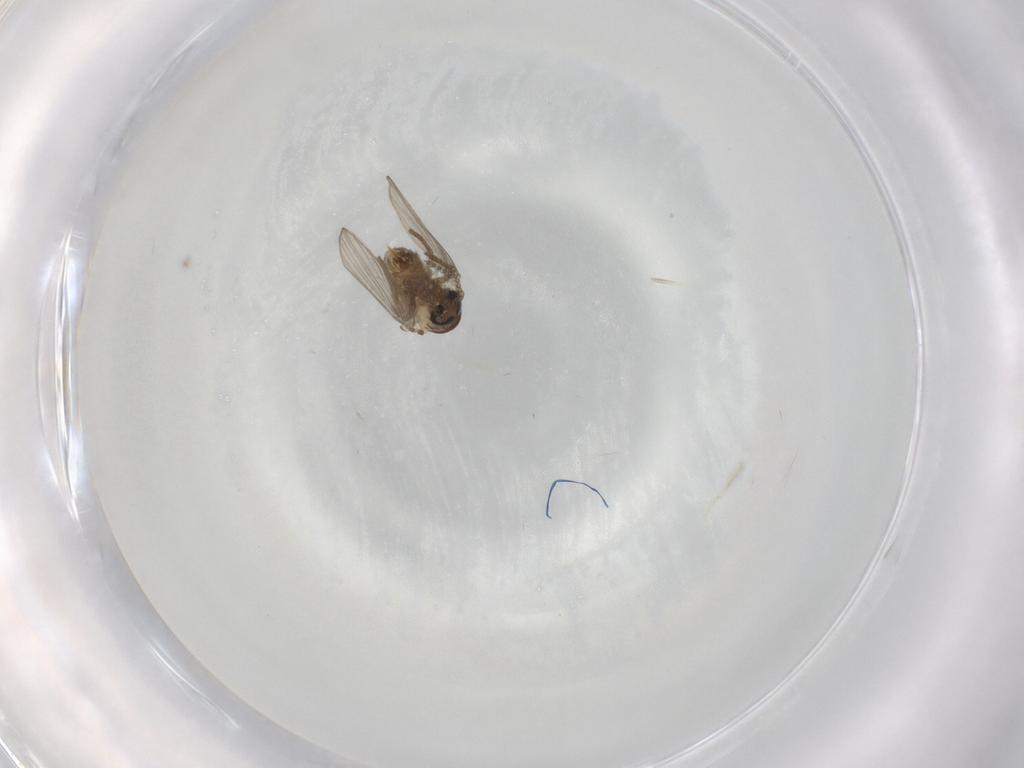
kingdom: Animalia
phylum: Arthropoda
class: Insecta
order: Diptera
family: Psychodidae
